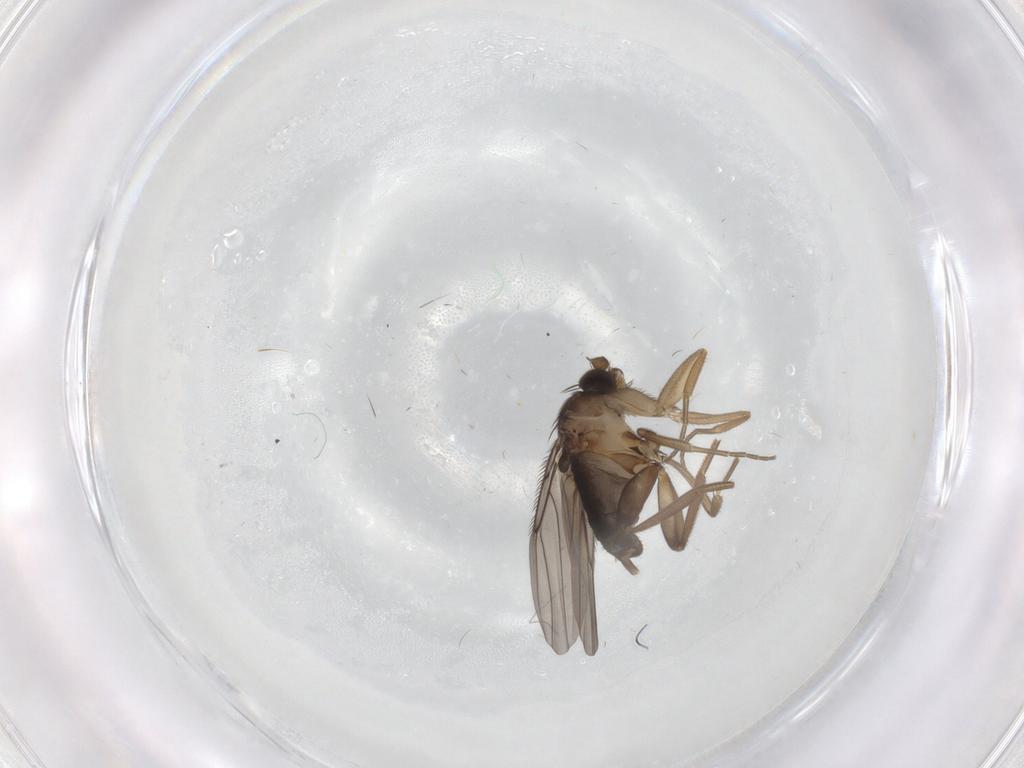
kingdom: Animalia
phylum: Arthropoda
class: Insecta
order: Diptera
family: Phoridae
